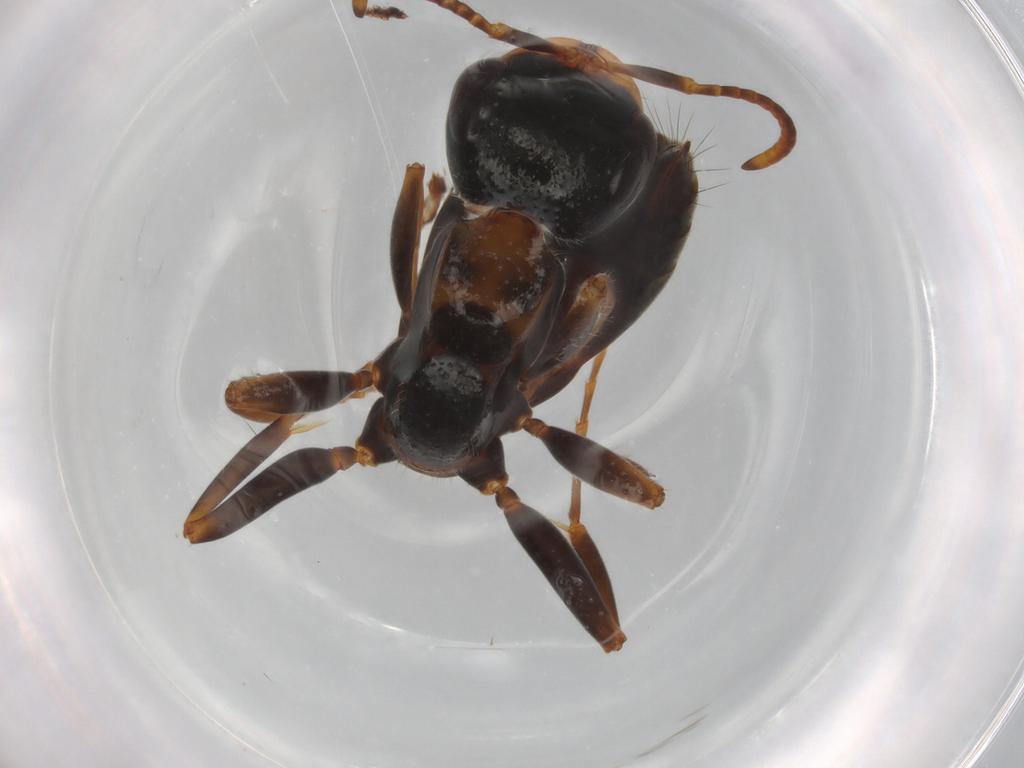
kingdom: Animalia
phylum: Arthropoda
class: Insecta
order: Hymenoptera
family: Formicidae
